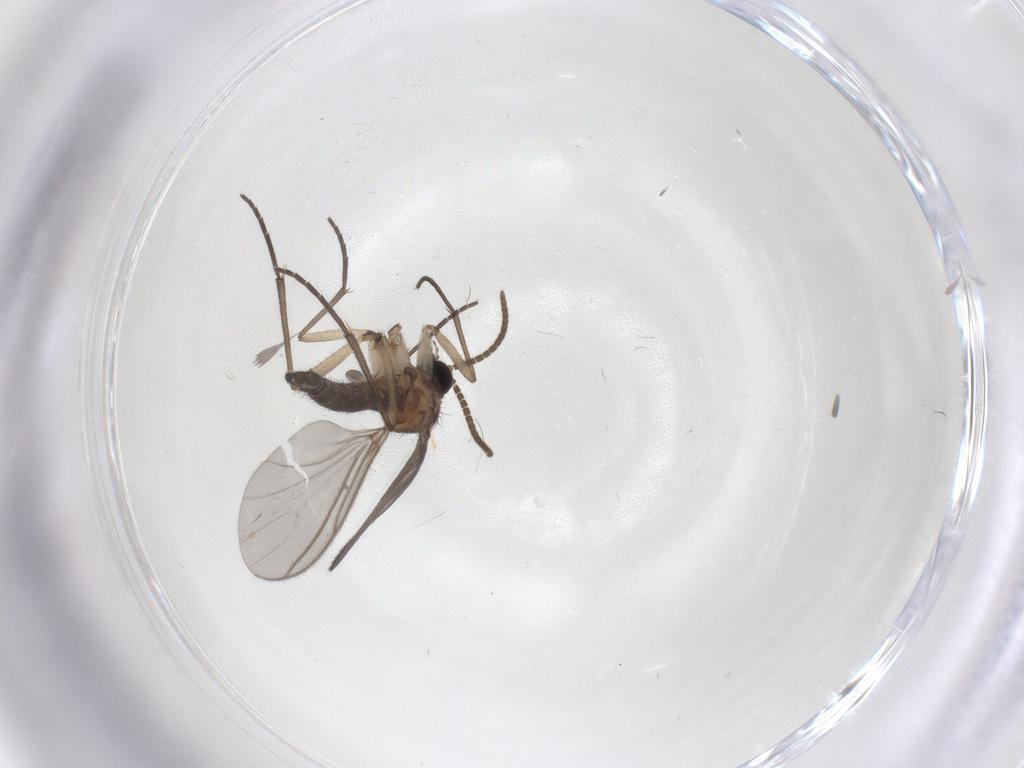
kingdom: Animalia
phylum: Arthropoda
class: Insecta
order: Diptera
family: Sciaridae
